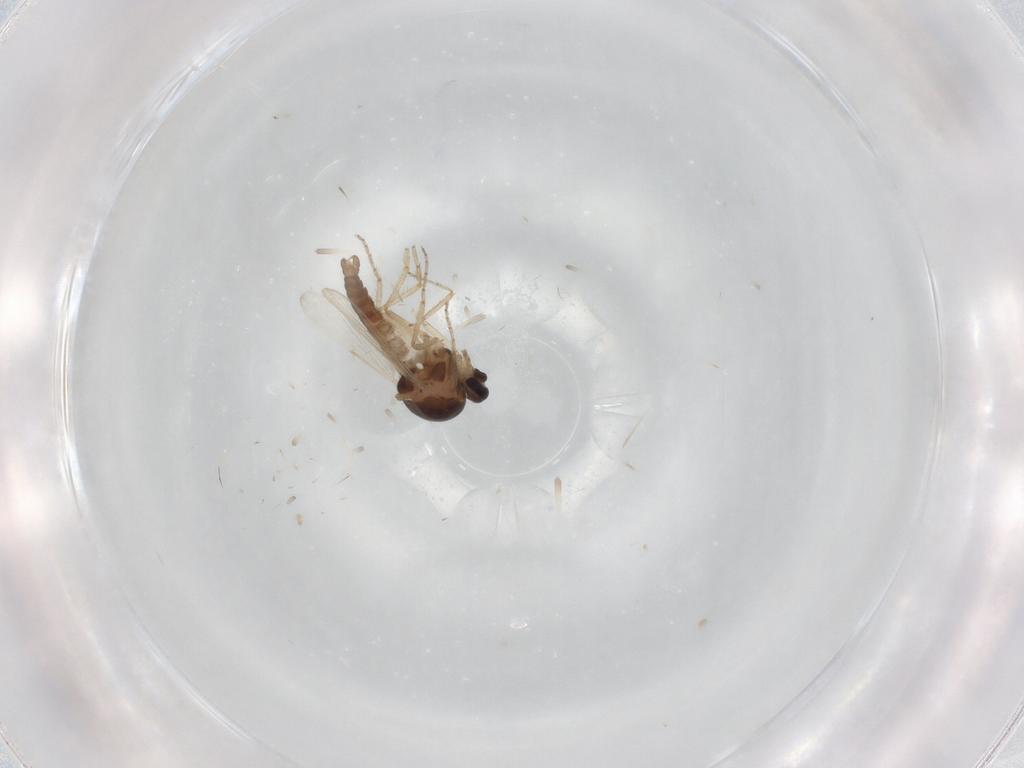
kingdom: Animalia
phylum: Arthropoda
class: Insecta
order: Diptera
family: Ceratopogonidae
